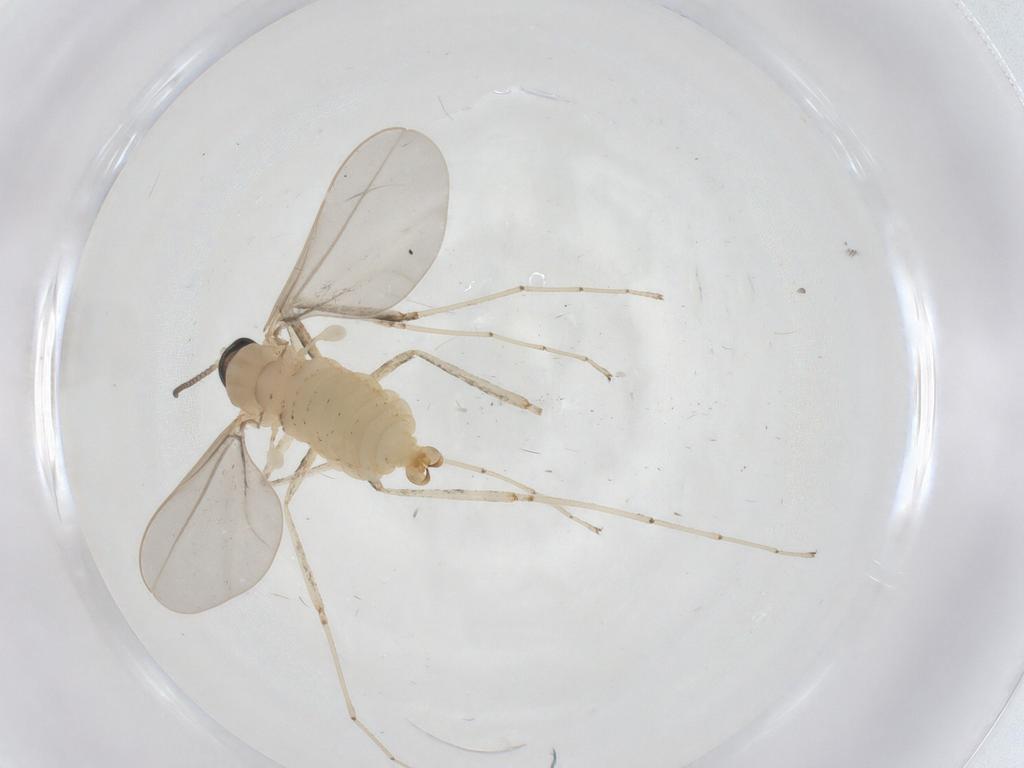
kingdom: Animalia
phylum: Arthropoda
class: Insecta
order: Diptera
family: Cecidomyiidae
